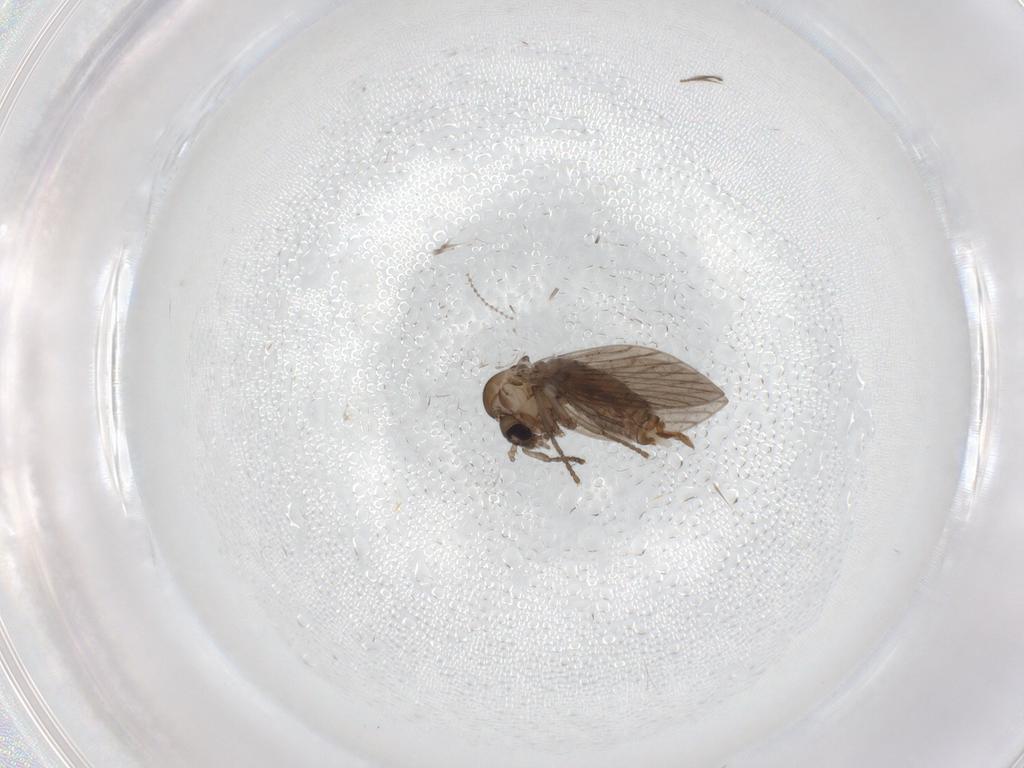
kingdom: Animalia
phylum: Arthropoda
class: Insecta
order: Diptera
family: Psychodidae
